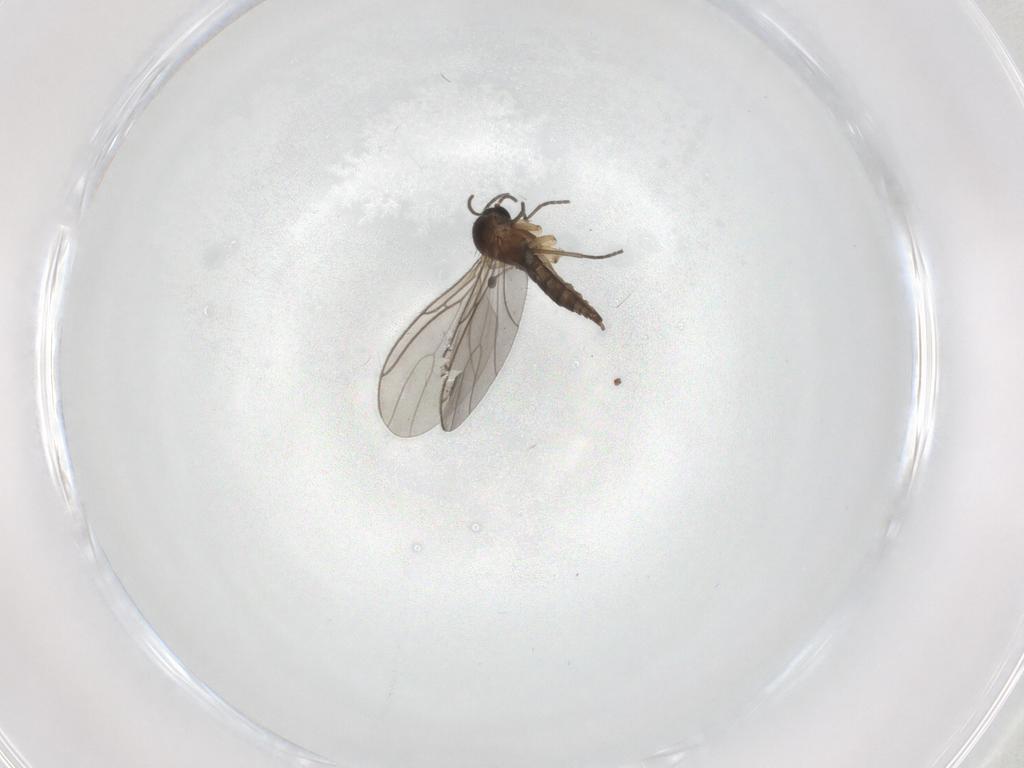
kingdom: Animalia
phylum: Arthropoda
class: Insecta
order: Diptera
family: Sciaridae
